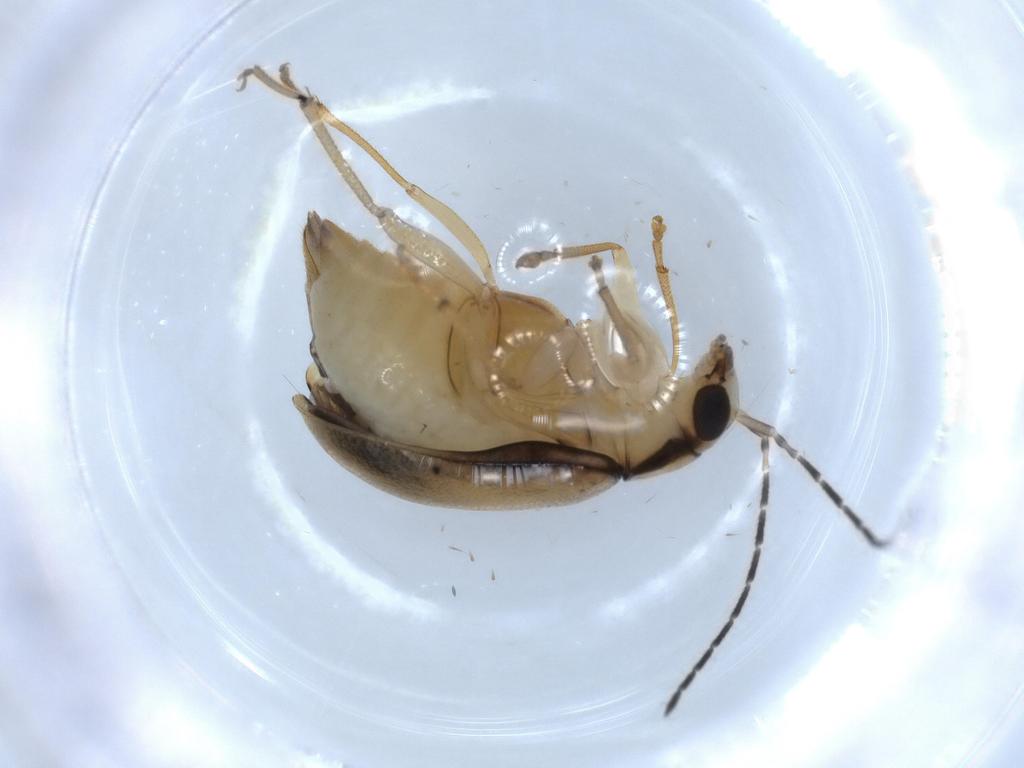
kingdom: Animalia
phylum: Arthropoda
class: Insecta
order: Coleoptera
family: Chrysomelidae
